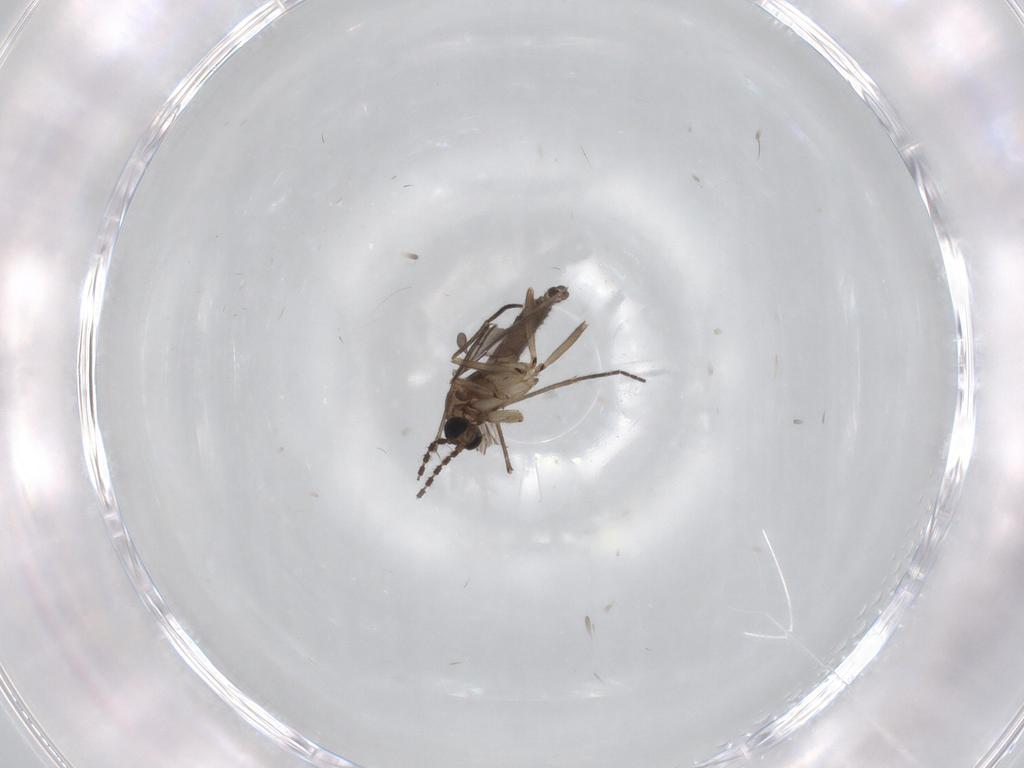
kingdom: Animalia
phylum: Arthropoda
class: Insecta
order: Diptera
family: Sciaridae
